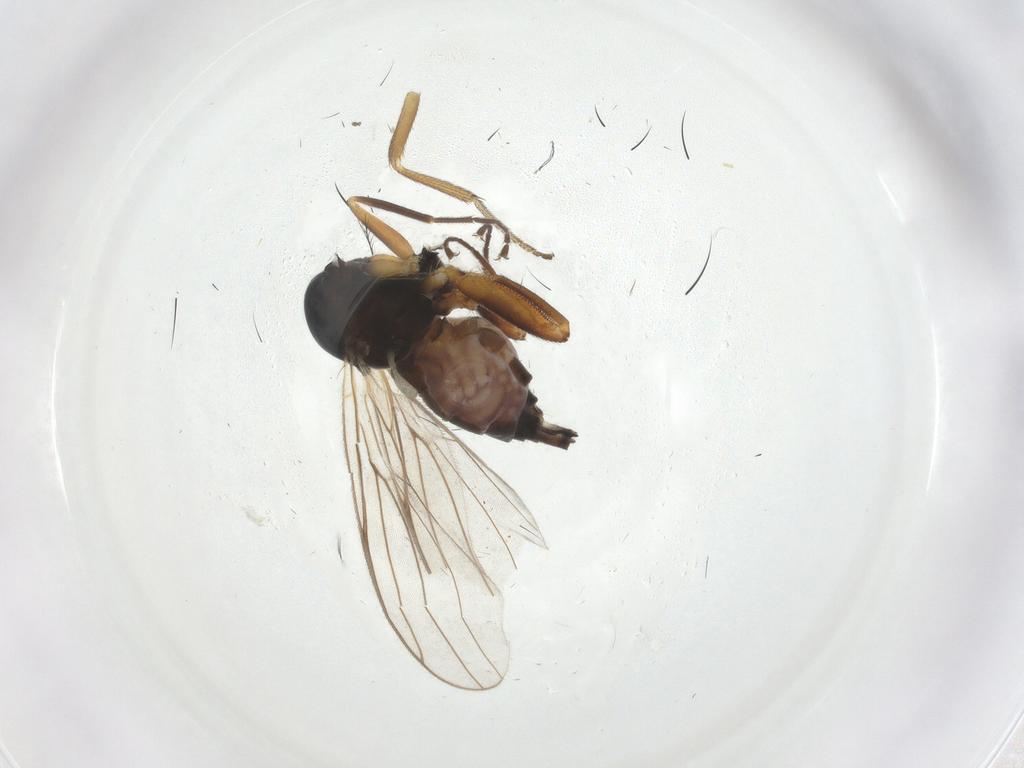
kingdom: Animalia
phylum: Arthropoda
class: Insecta
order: Diptera
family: Hybotidae
